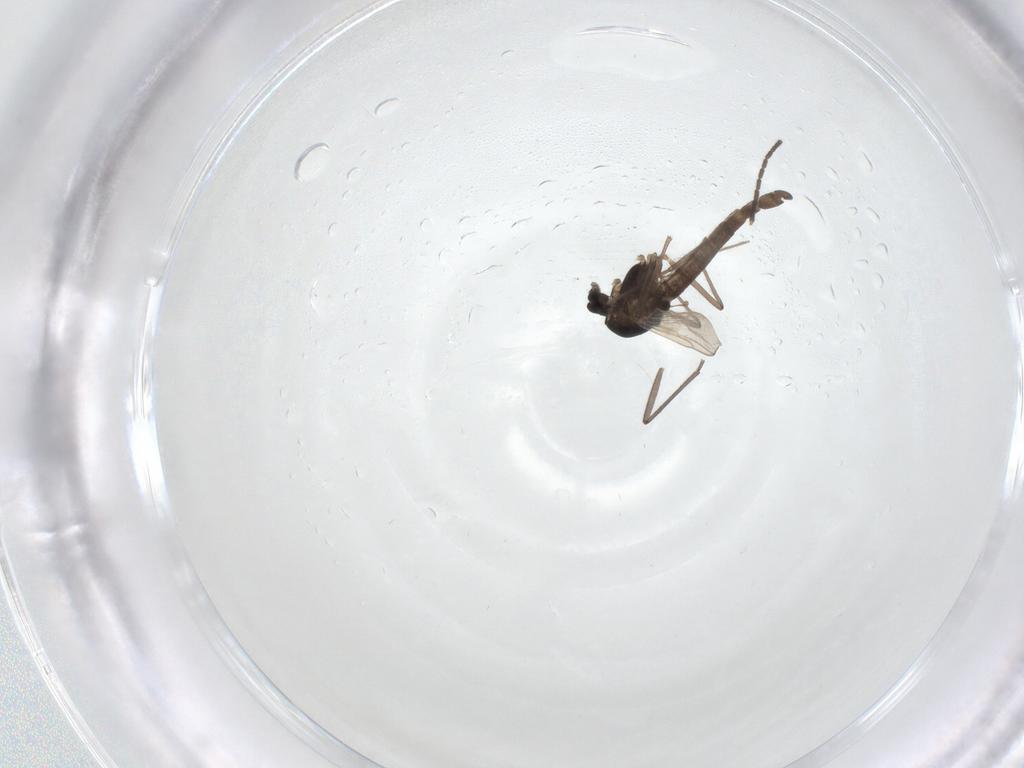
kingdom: Animalia
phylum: Arthropoda
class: Insecta
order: Diptera
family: Chironomidae
